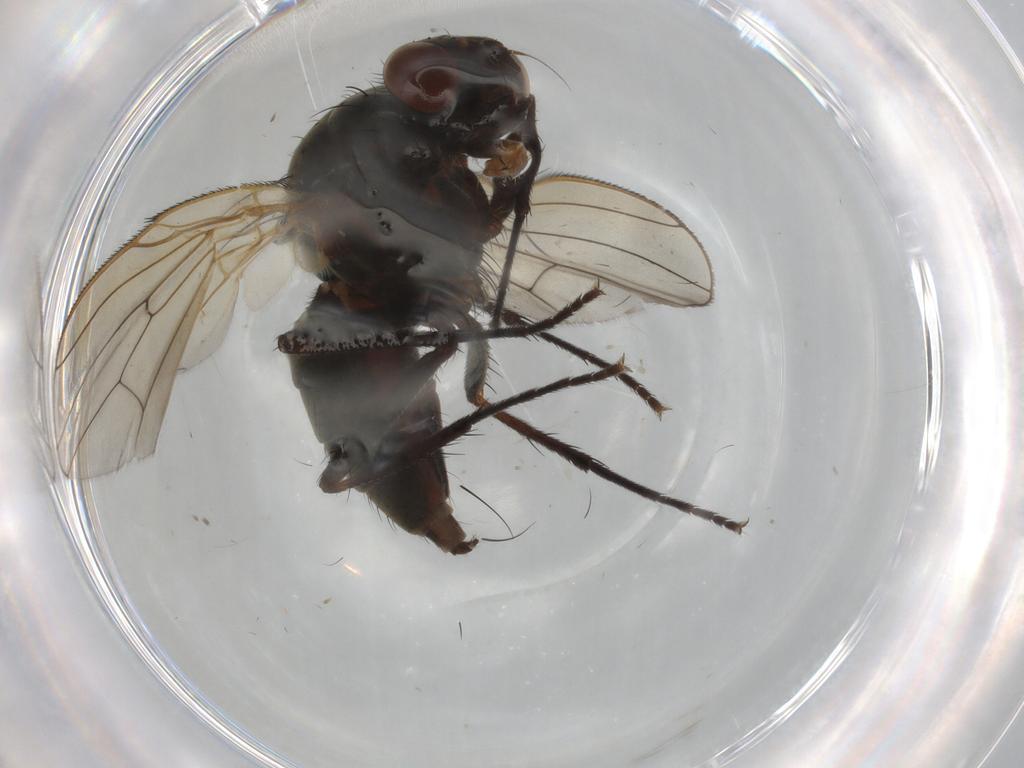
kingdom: Animalia
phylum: Arthropoda
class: Insecta
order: Diptera
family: Anthomyiidae
